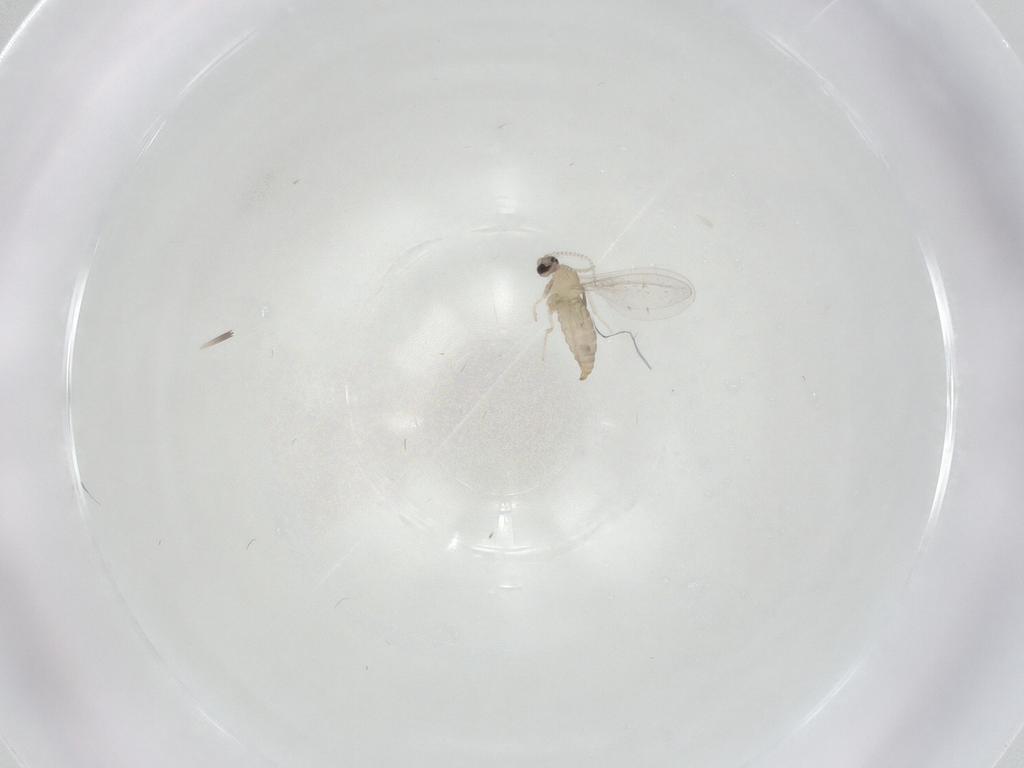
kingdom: Animalia
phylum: Arthropoda
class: Insecta
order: Diptera
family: Cecidomyiidae
